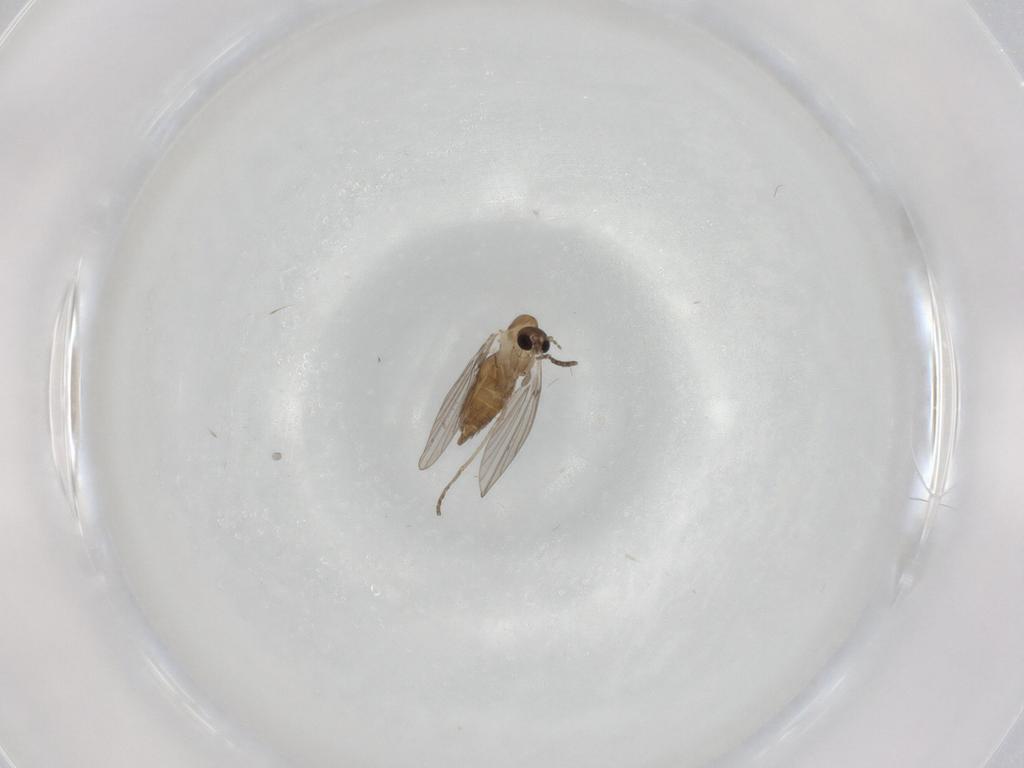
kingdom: Animalia
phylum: Arthropoda
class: Insecta
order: Diptera
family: Psychodidae
